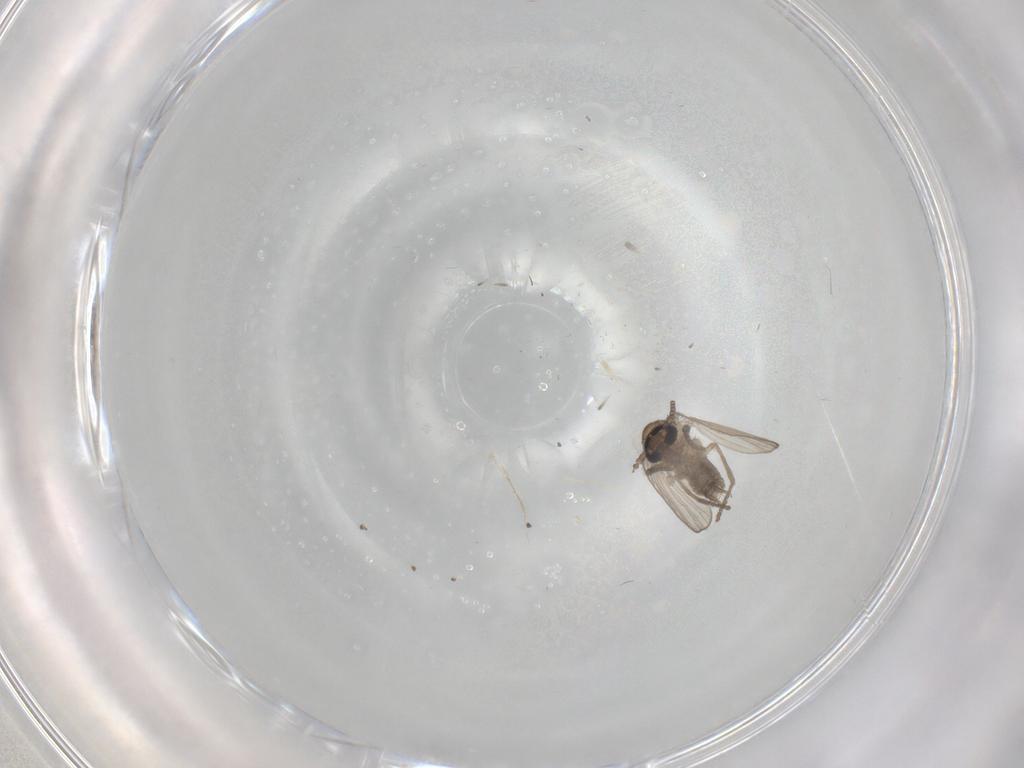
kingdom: Animalia
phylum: Arthropoda
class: Insecta
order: Diptera
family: Psychodidae
